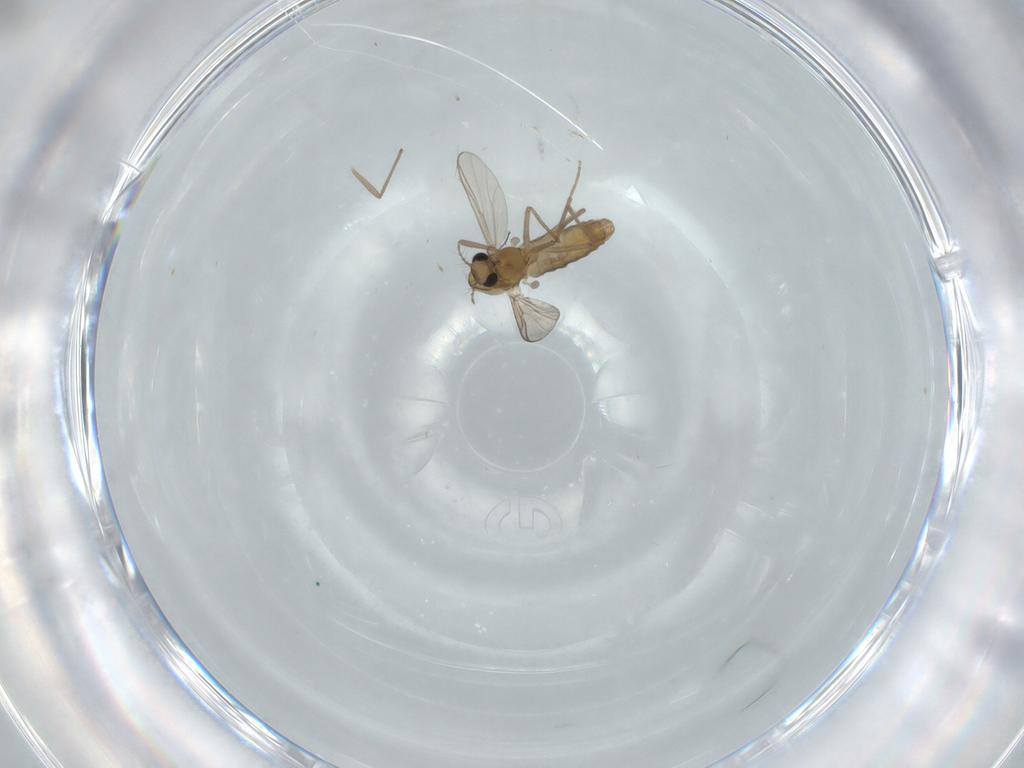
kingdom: Animalia
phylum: Arthropoda
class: Insecta
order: Diptera
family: Chironomidae
